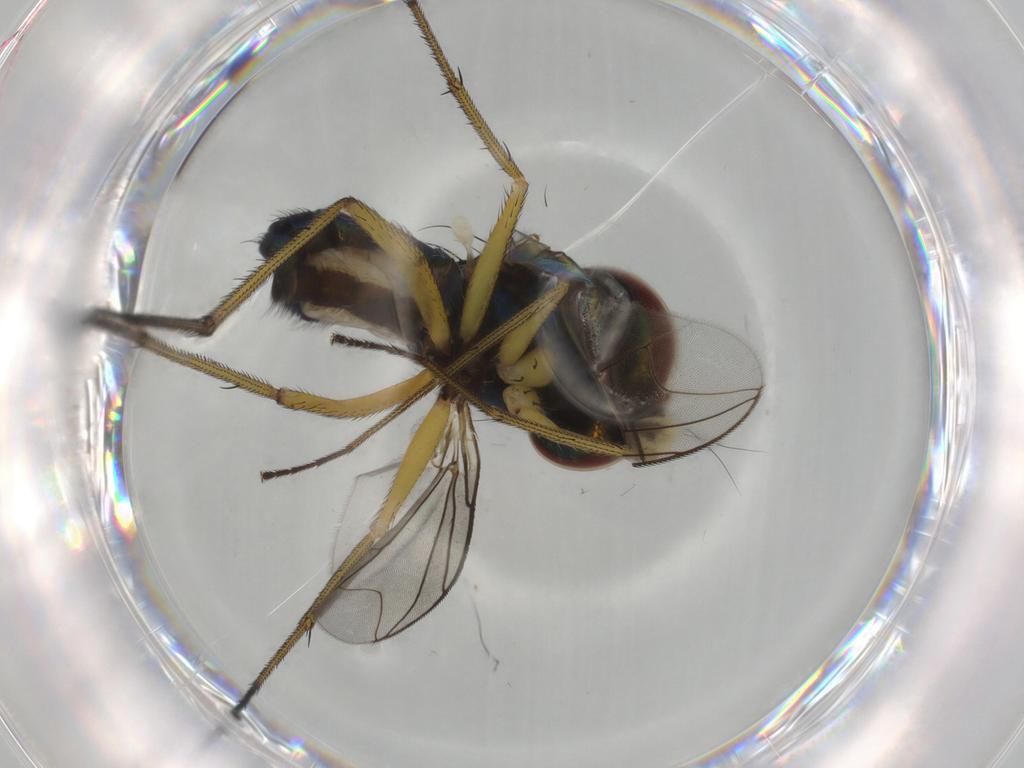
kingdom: Animalia
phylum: Arthropoda
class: Insecta
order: Diptera
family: Dolichopodidae
